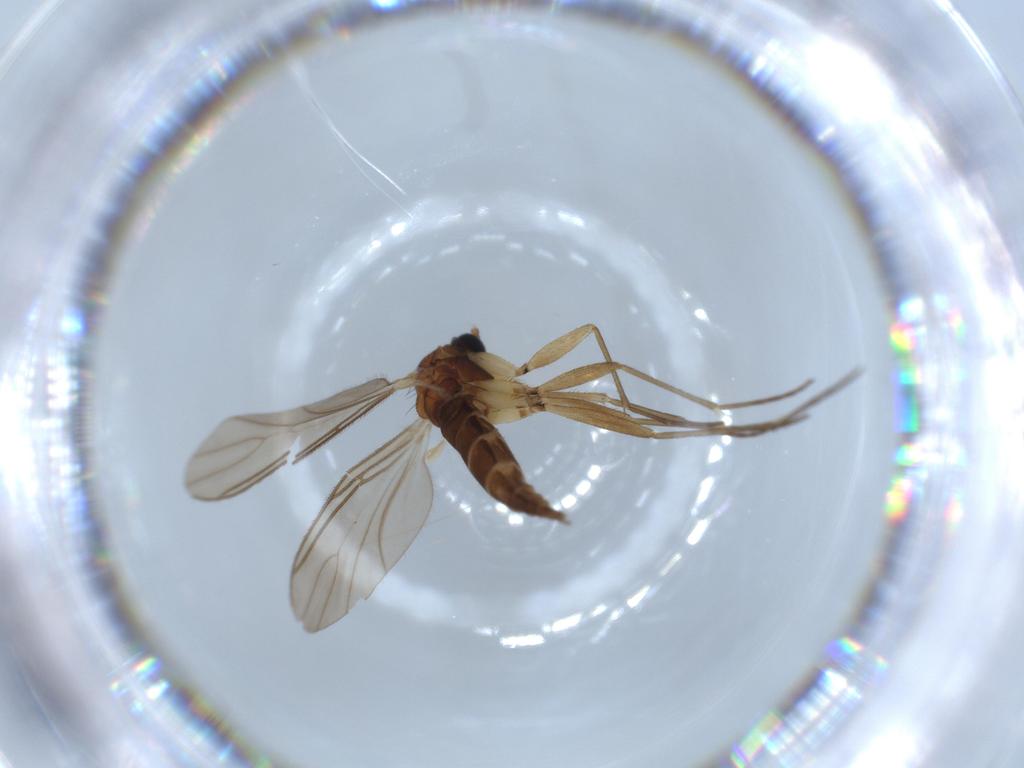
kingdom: Animalia
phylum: Arthropoda
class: Insecta
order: Diptera
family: Sciaridae
